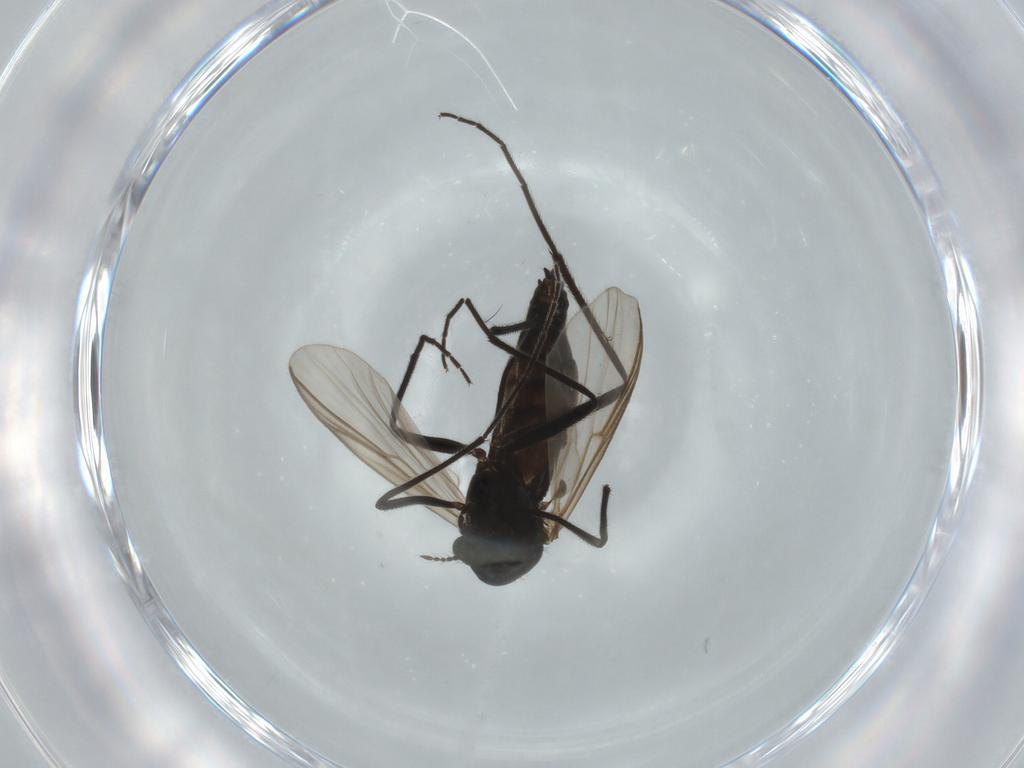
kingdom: Animalia
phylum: Arthropoda
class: Insecta
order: Diptera
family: Chironomidae
